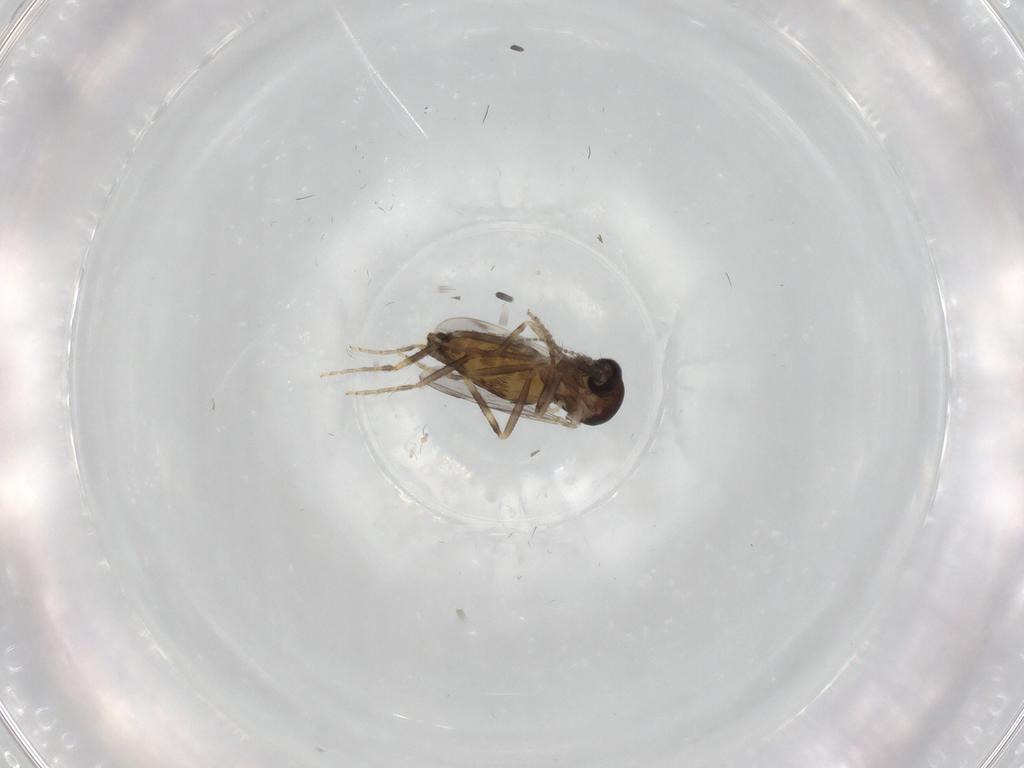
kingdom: Animalia
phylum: Arthropoda
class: Insecta
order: Diptera
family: Ceratopogonidae
